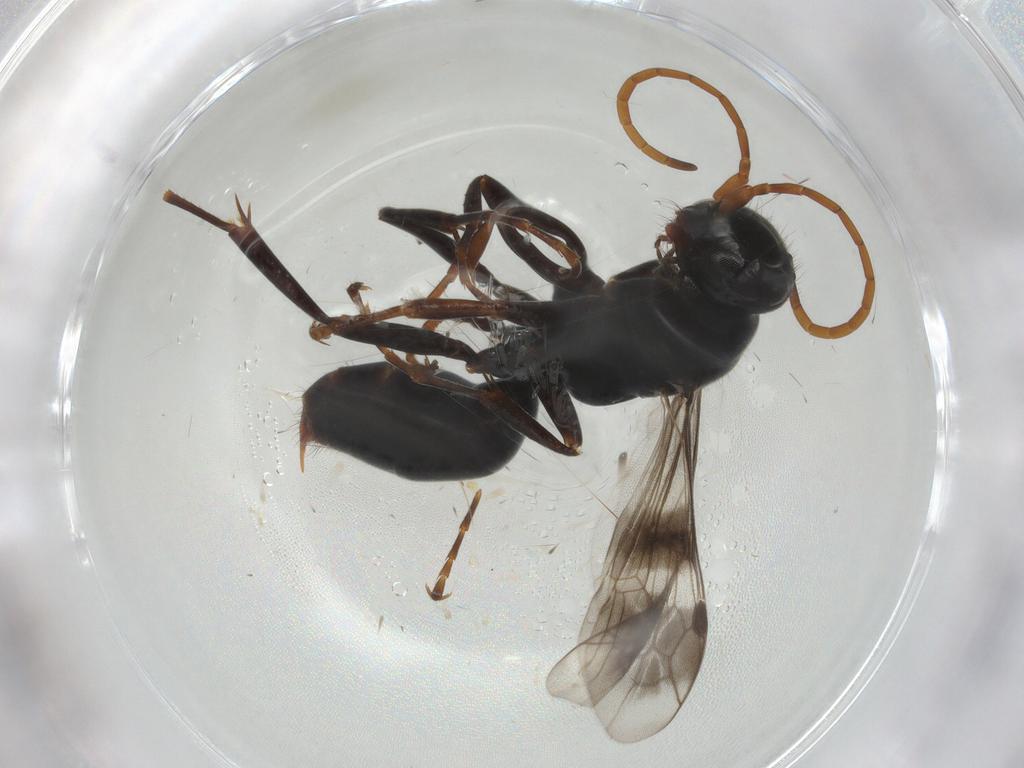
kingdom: Animalia
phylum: Arthropoda
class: Insecta
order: Hymenoptera
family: Pompilidae
